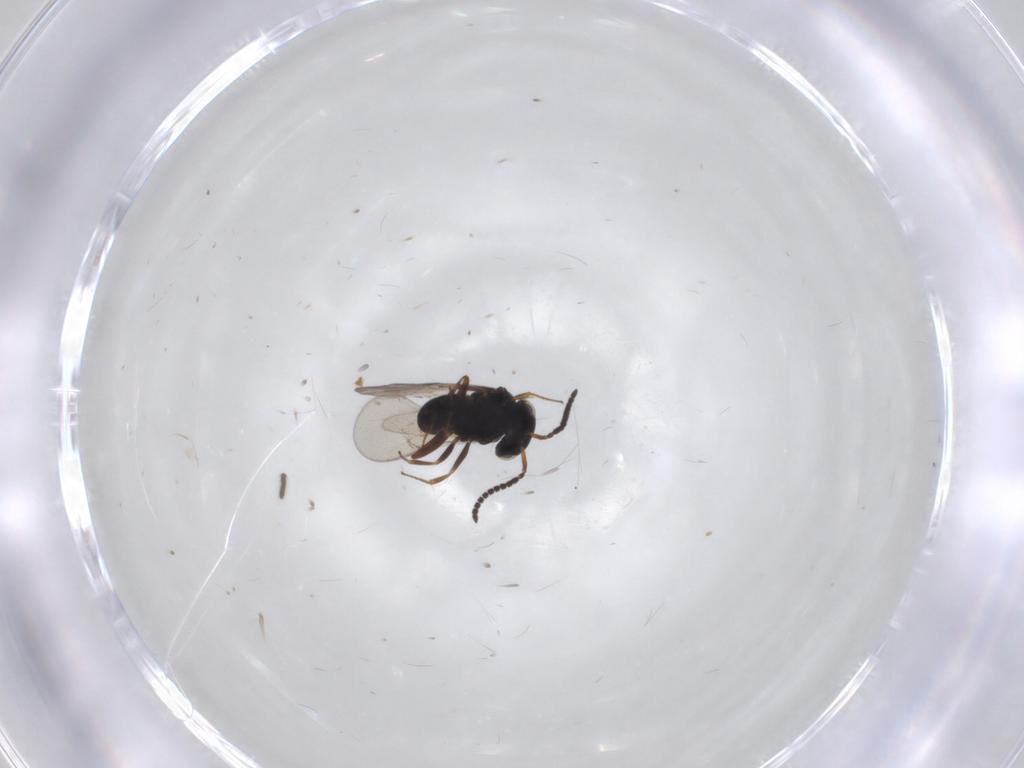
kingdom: Animalia
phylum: Arthropoda
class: Insecta
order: Hymenoptera
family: Scelionidae
